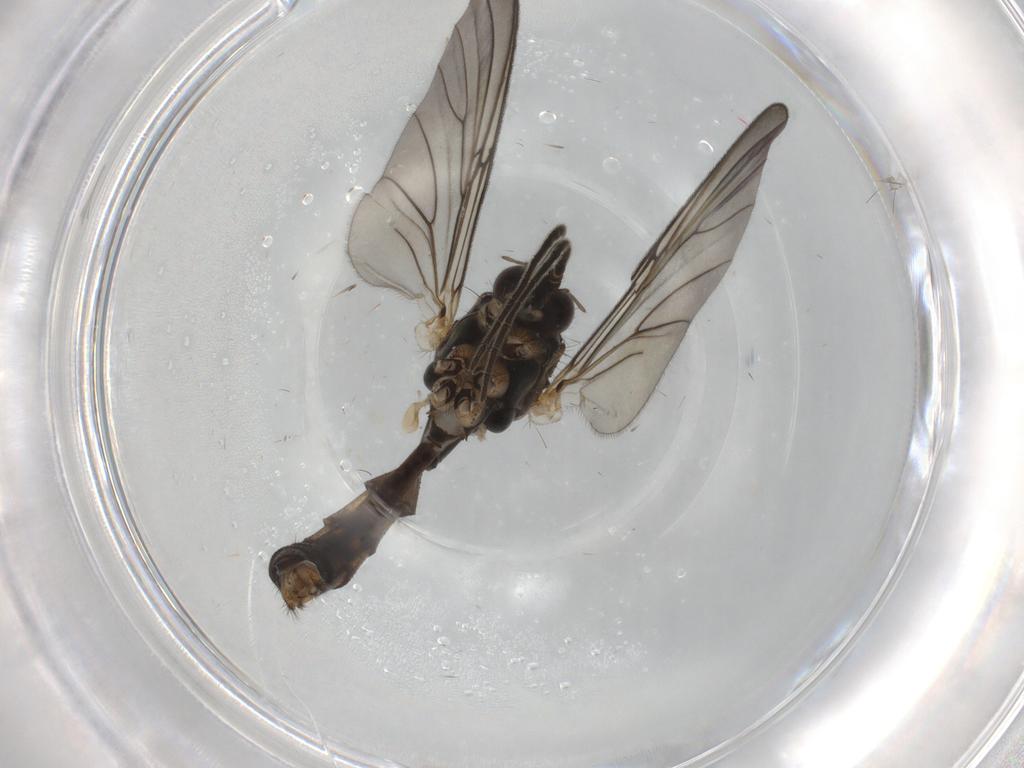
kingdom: Animalia
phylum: Arthropoda
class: Insecta
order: Diptera
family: Cecidomyiidae
